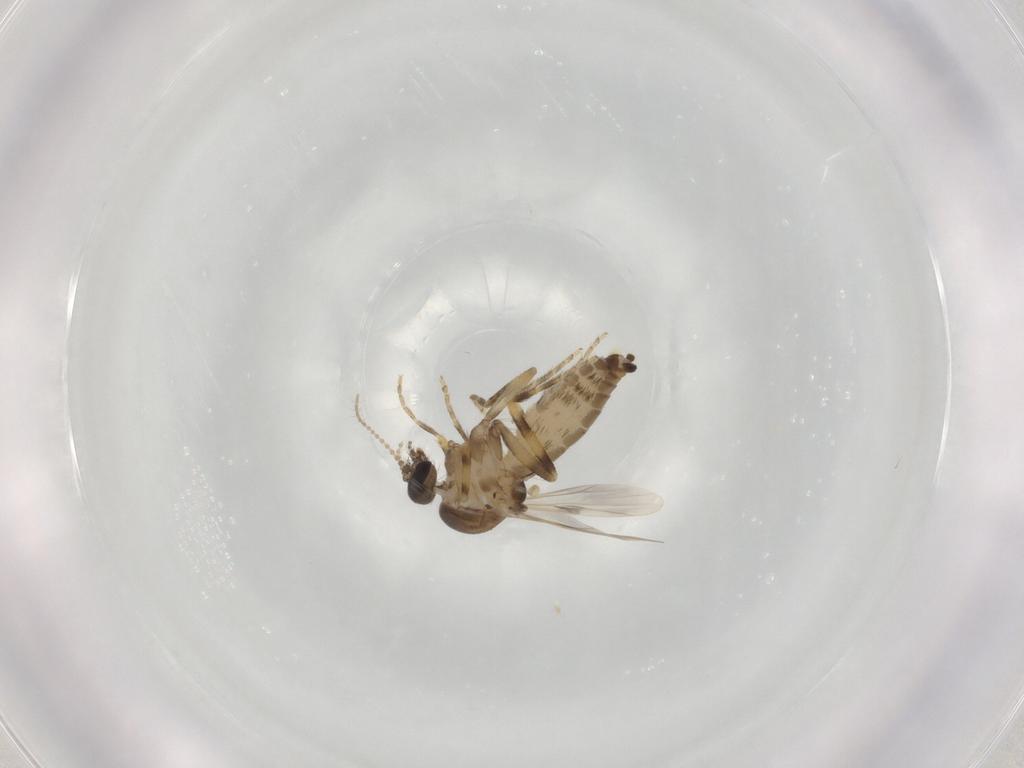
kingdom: Animalia
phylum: Arthropoda
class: Insecta
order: Diptera
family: Ceratopogonidae
